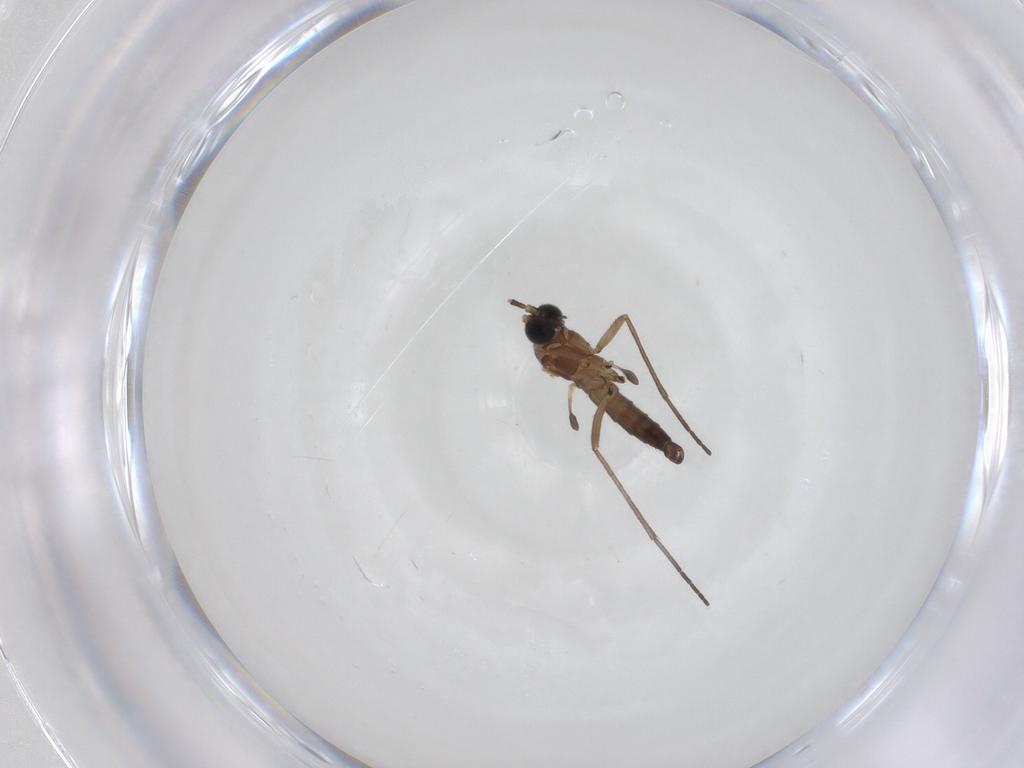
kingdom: Animalia
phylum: Arthropoda
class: Insecta
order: Diptera
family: Sciaridae
